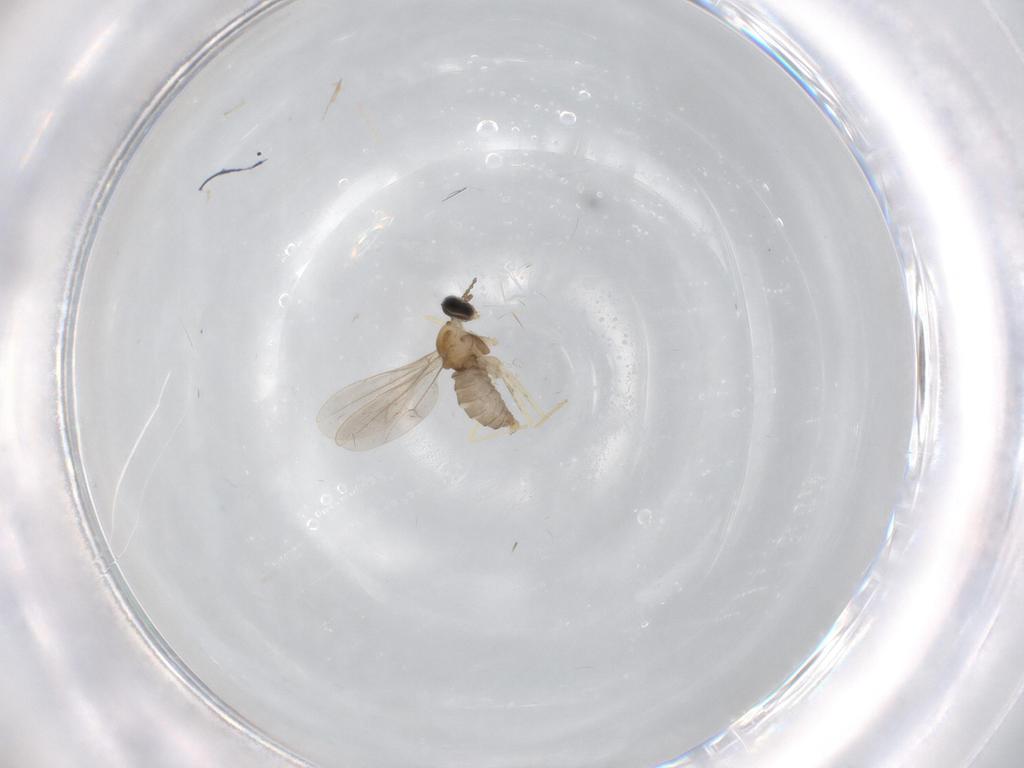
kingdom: Animalia
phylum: Arthropoda
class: Insecta
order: Diptera
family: Cecidomyiidae
